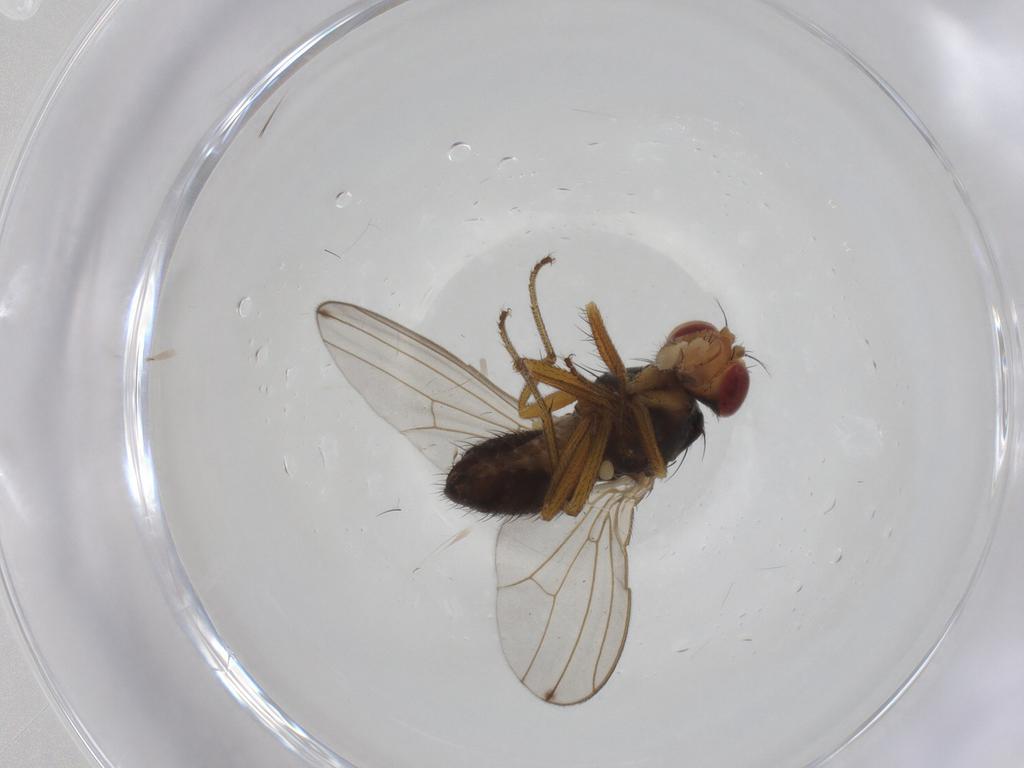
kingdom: Animalia
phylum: Arthropoda
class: Insecta
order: Diptera
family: Drosophilidae
